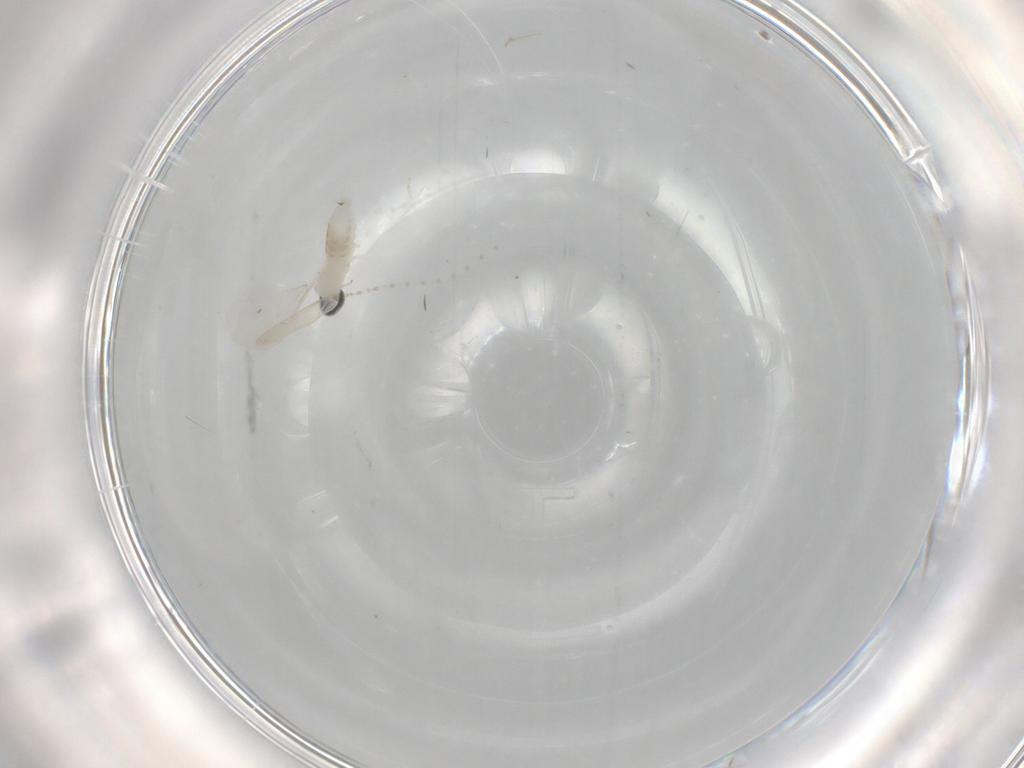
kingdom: Animalia
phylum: Arthropoda
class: Insecta
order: Diptera
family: Cecidomyiidae
